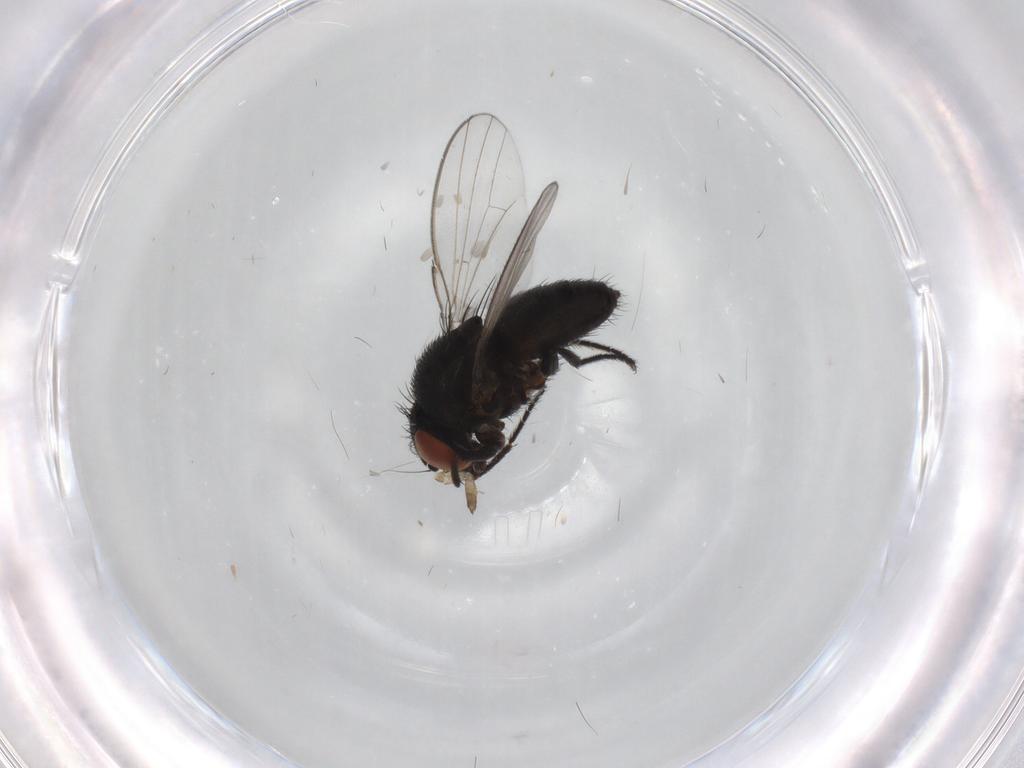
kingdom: Animalia
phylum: Arthropoda
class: Insecta
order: Diptera
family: Milichiidae
